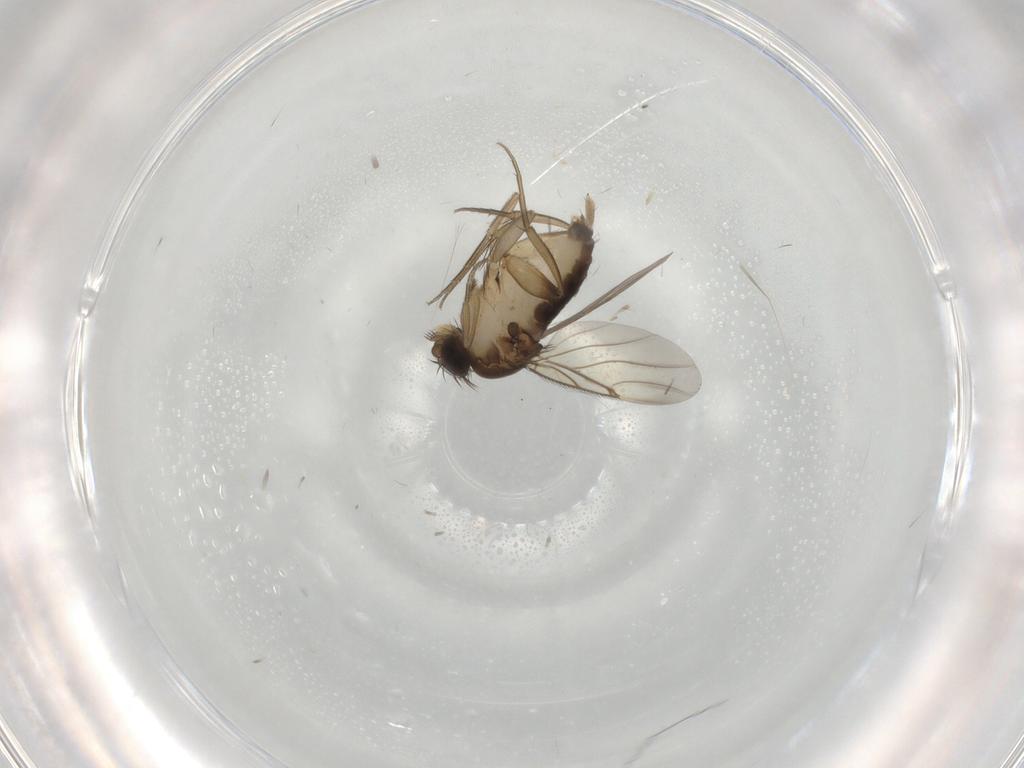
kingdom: Animalia
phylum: Arthropoda
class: Insecta
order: Diptera
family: Phoridae
